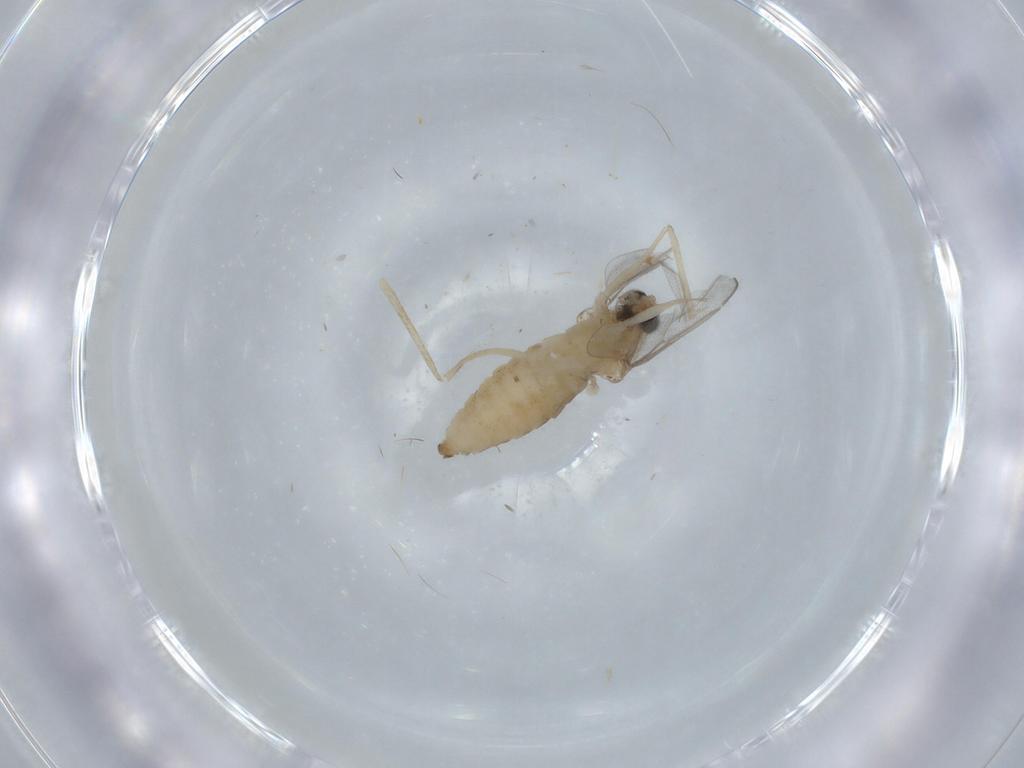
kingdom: Animalia
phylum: Arthropoda
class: Insecta
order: Diptera
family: Cecidomyiidae
